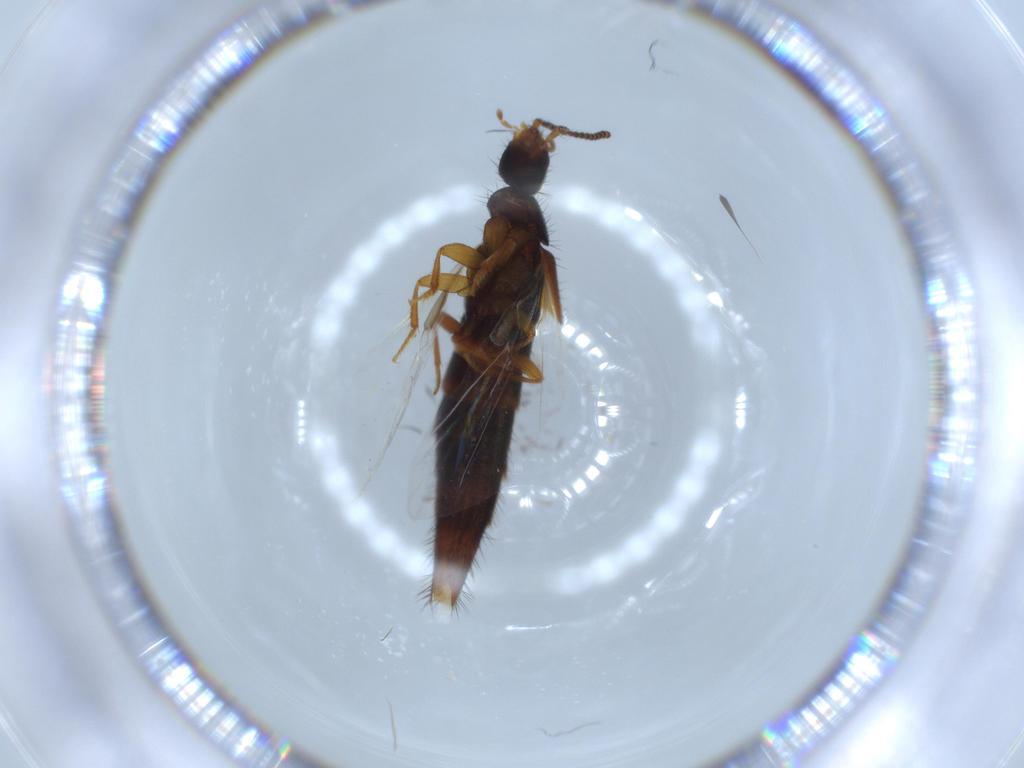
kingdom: Animalia
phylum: Arthropoda
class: Insecta
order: Coleoptera
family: Staphylinidae
